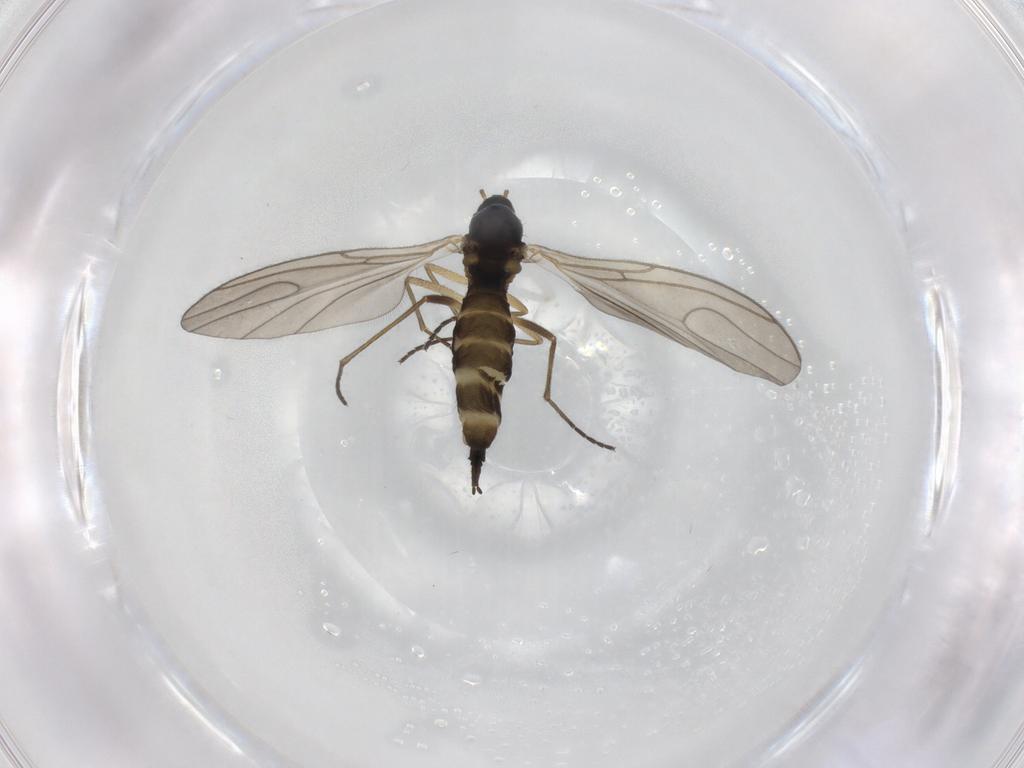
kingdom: Animalia
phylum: Arthropoda
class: Insecta
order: Diptera
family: Sciaridae
